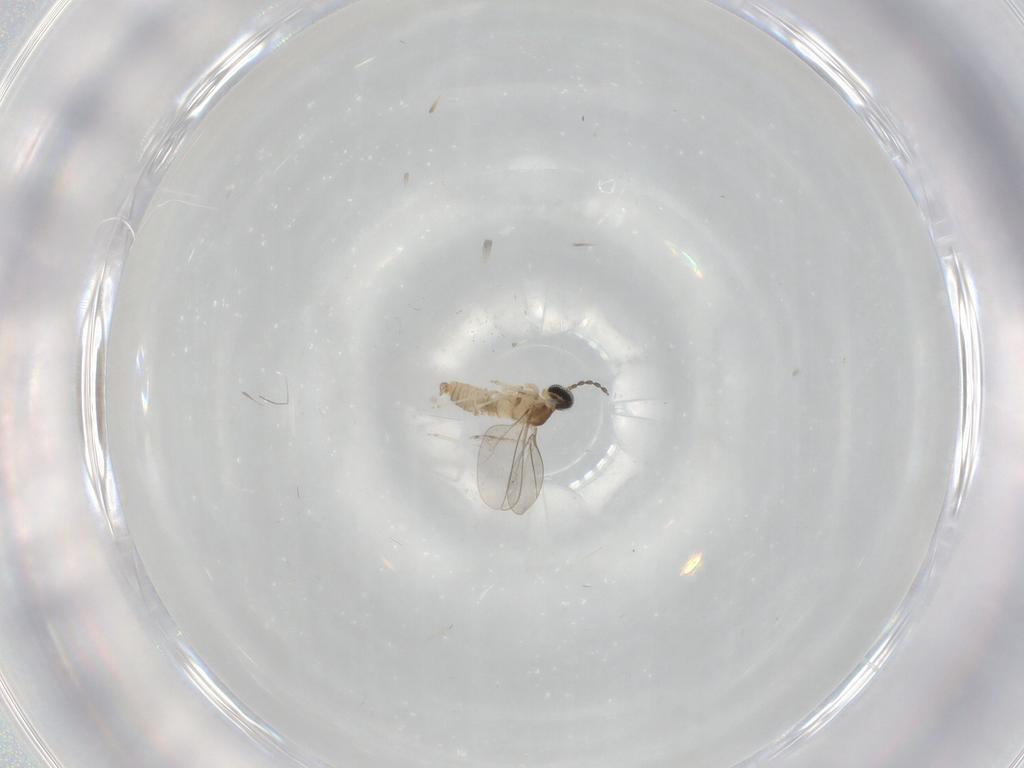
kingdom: Animalia
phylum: Arthropoda
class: Insecta
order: Diptera
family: Cecidomyiidae
